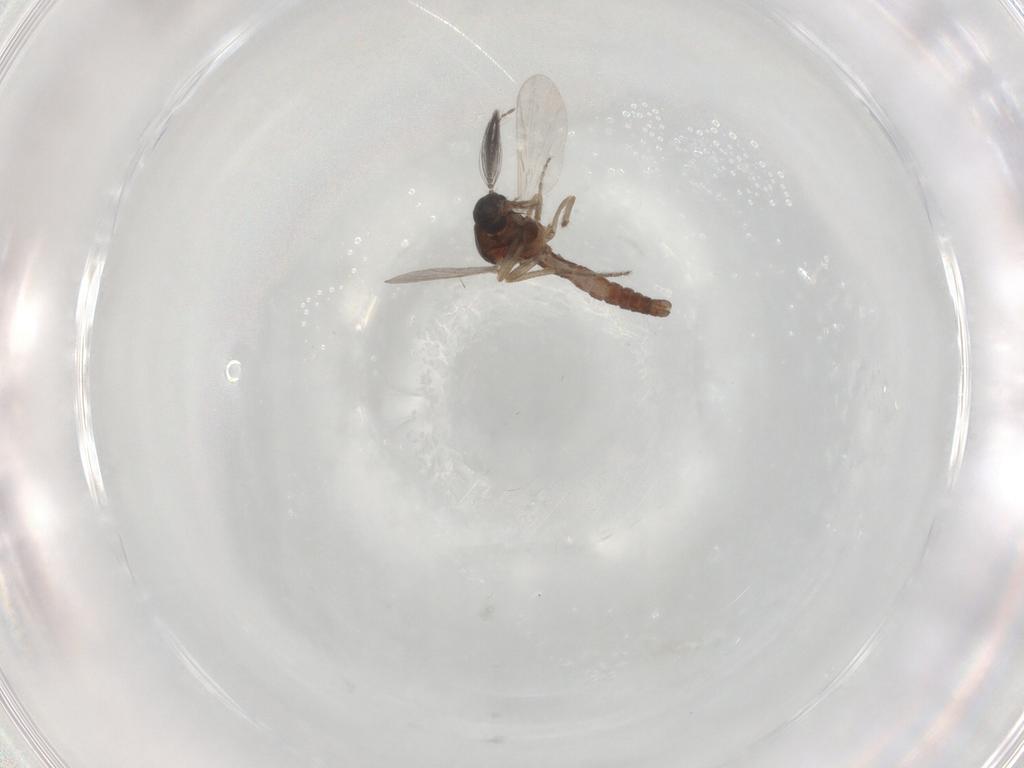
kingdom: Animalia
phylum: Arthropoda
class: Insecta
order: Diptera
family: Ceratopogonidae
